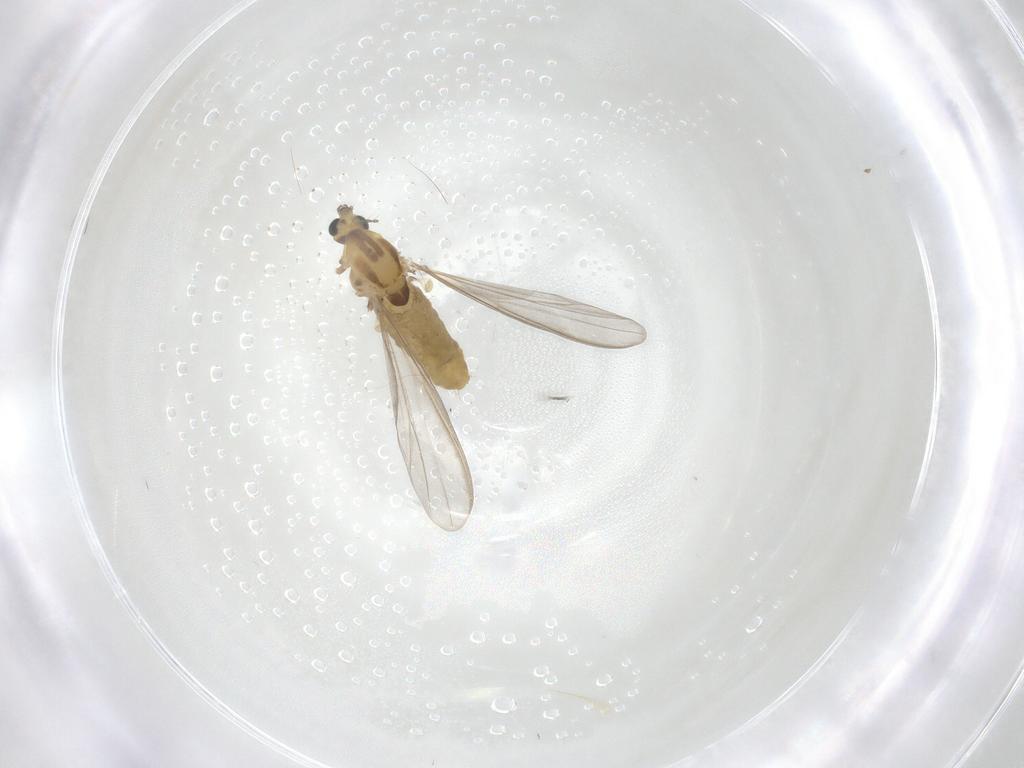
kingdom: Animalia
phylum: Arthropoda
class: Insecta
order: Diptera
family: Chironomidae
